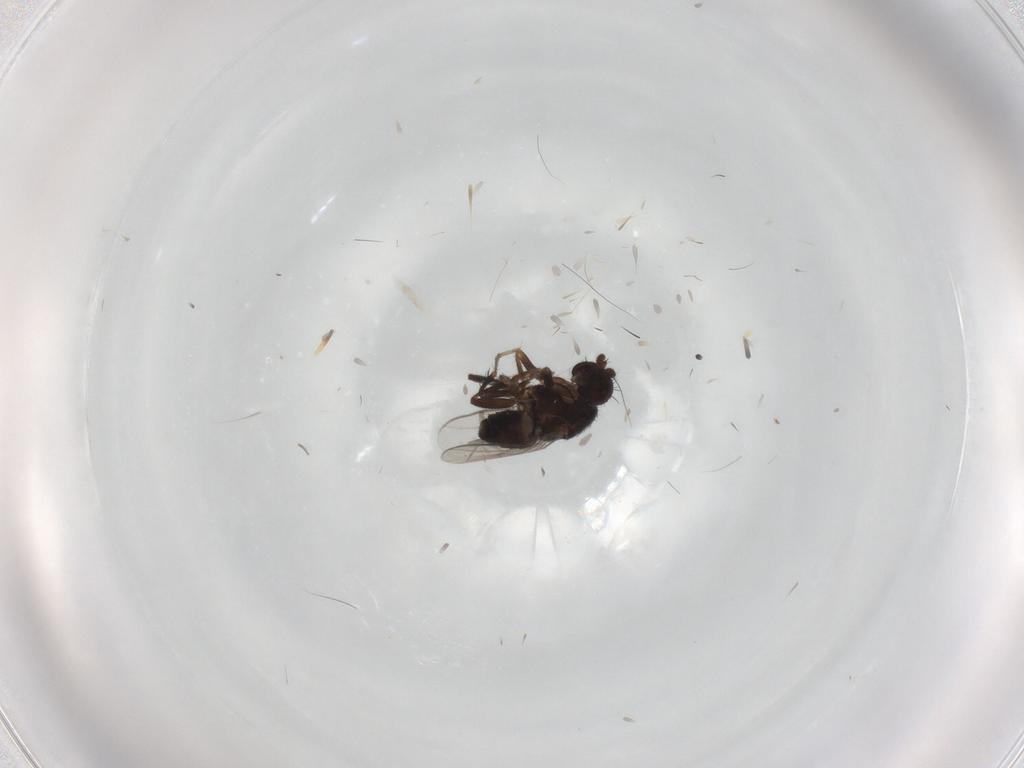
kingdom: Animalia
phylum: Arthropoda
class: Insecta
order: Diptera
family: Sphaeroceridae
